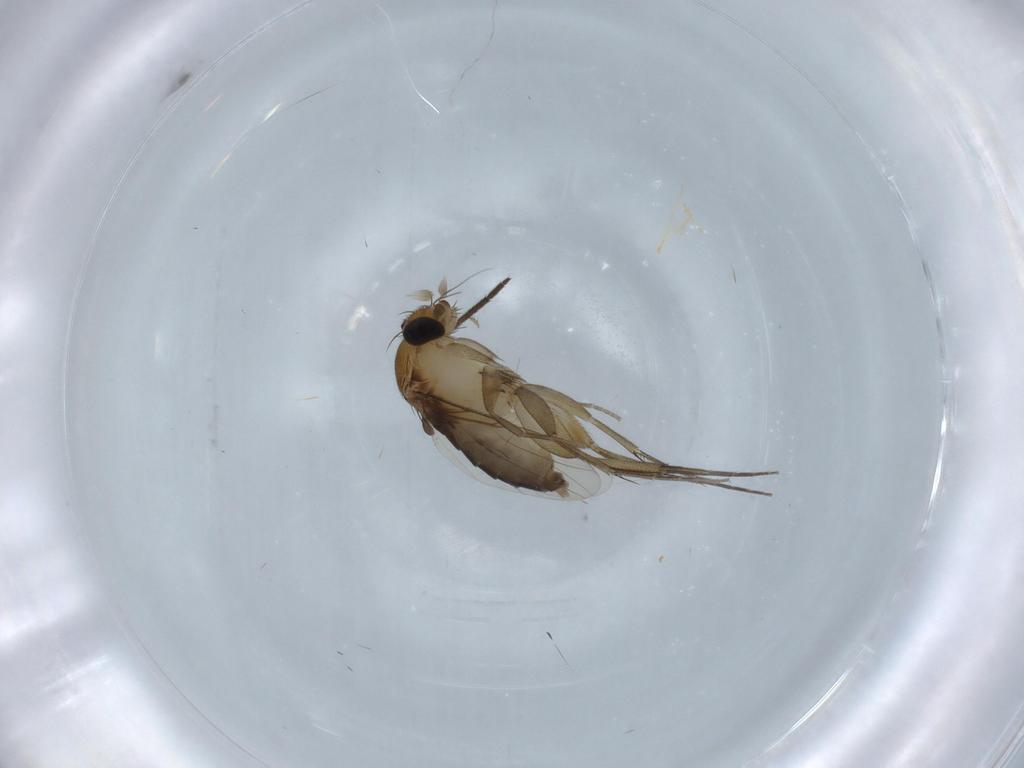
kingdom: Animalia
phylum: Arthropoda
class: Insecta
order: Diptera
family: Sciaridae
